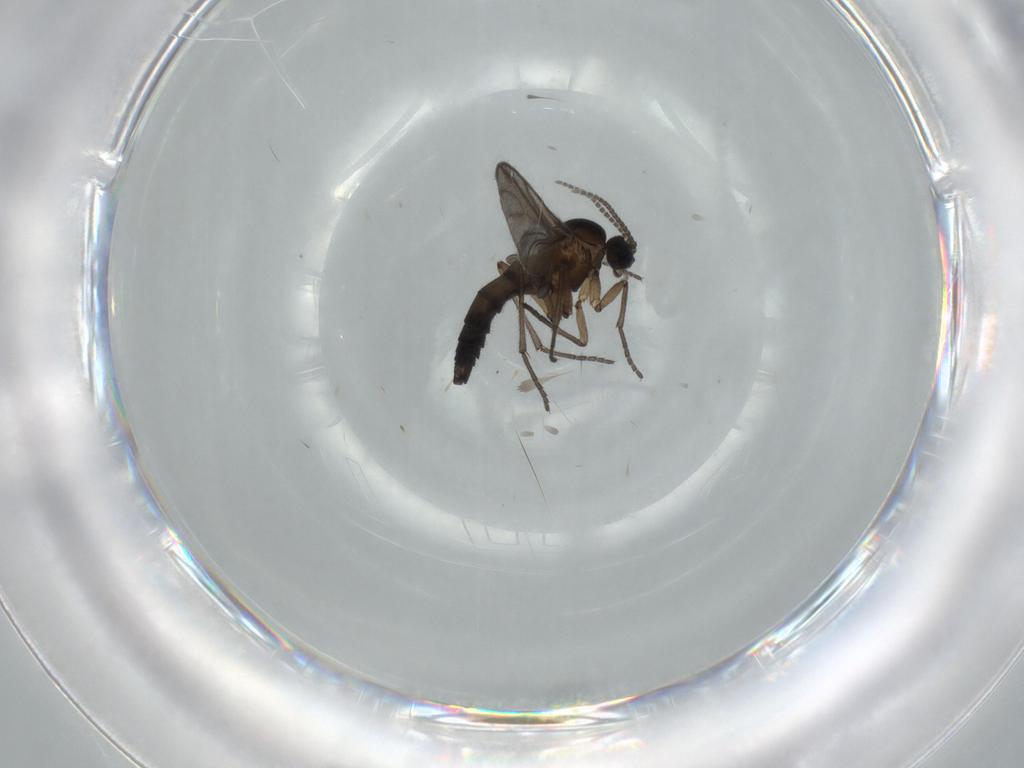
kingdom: Animalia
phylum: Arthropoda
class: Insecta
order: Diptera
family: Sciaridae
